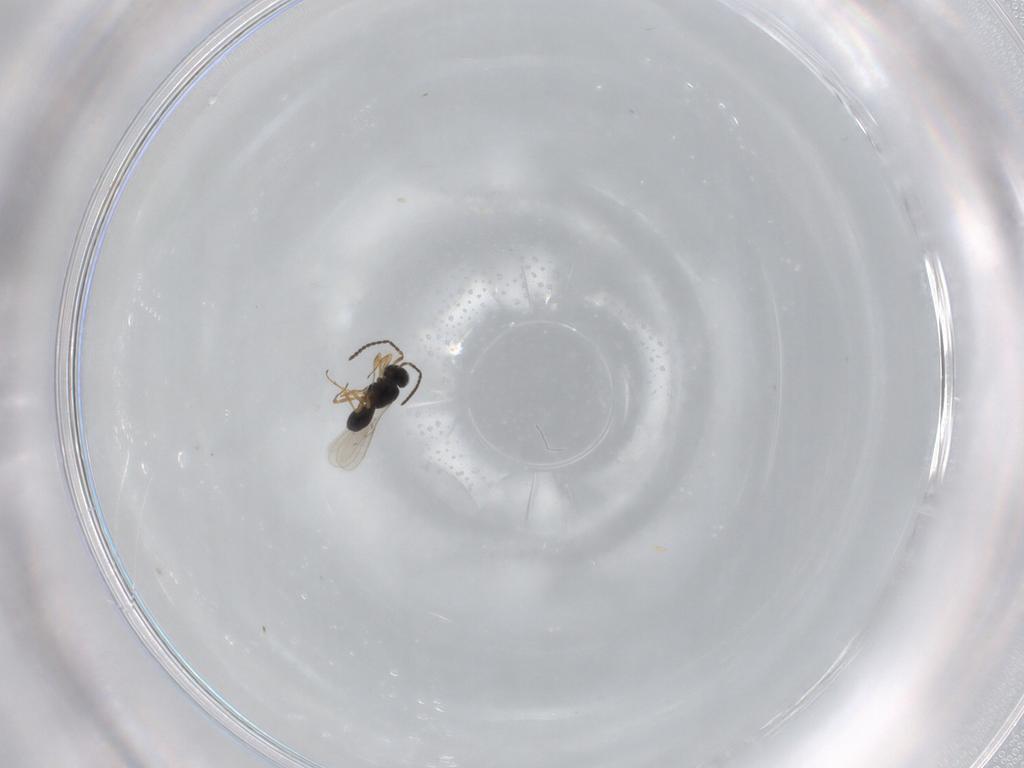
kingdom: Animalia
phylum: Arthropoda
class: Insecta
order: Hymenoptera
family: Scelionidae
